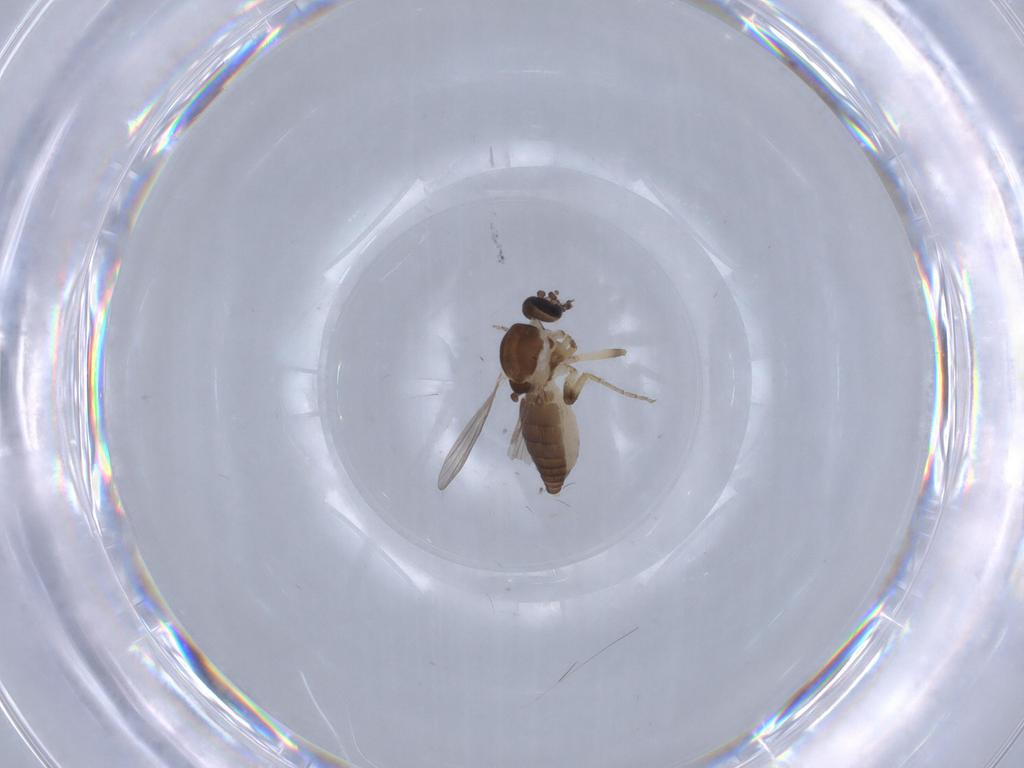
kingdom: Animalia
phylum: Arthropoda
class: Insecta
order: Diptera
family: Ceratopogonidae
